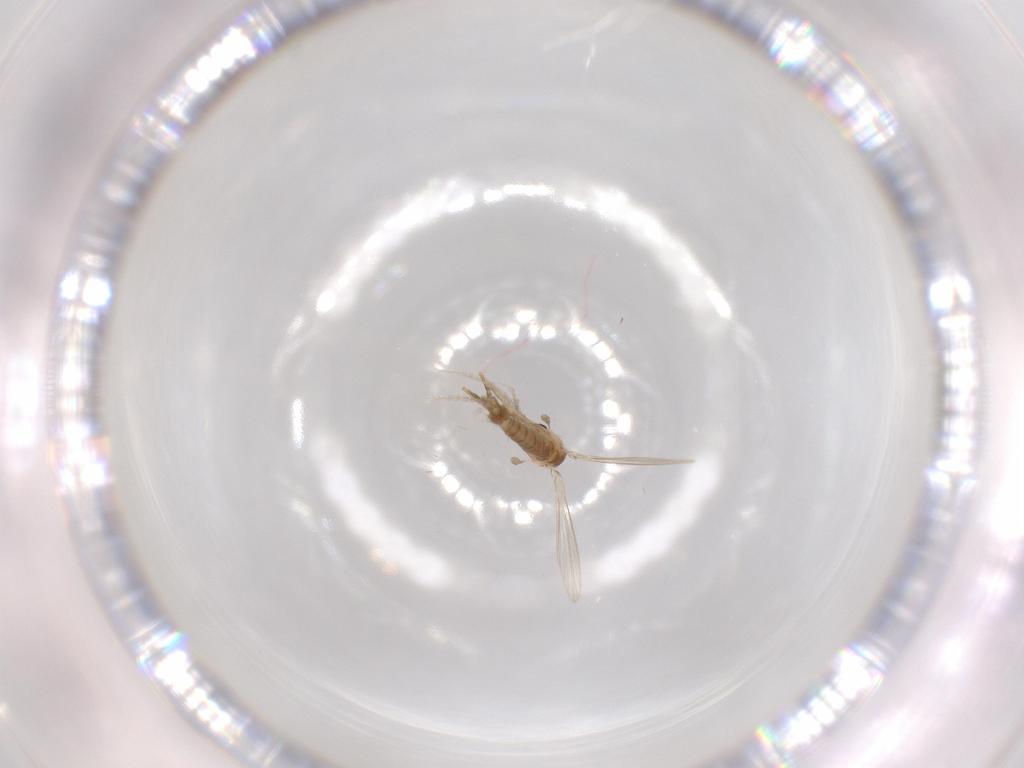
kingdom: Animalia
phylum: Arthropoda
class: Insecta
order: Diptera
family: Psychodidae
